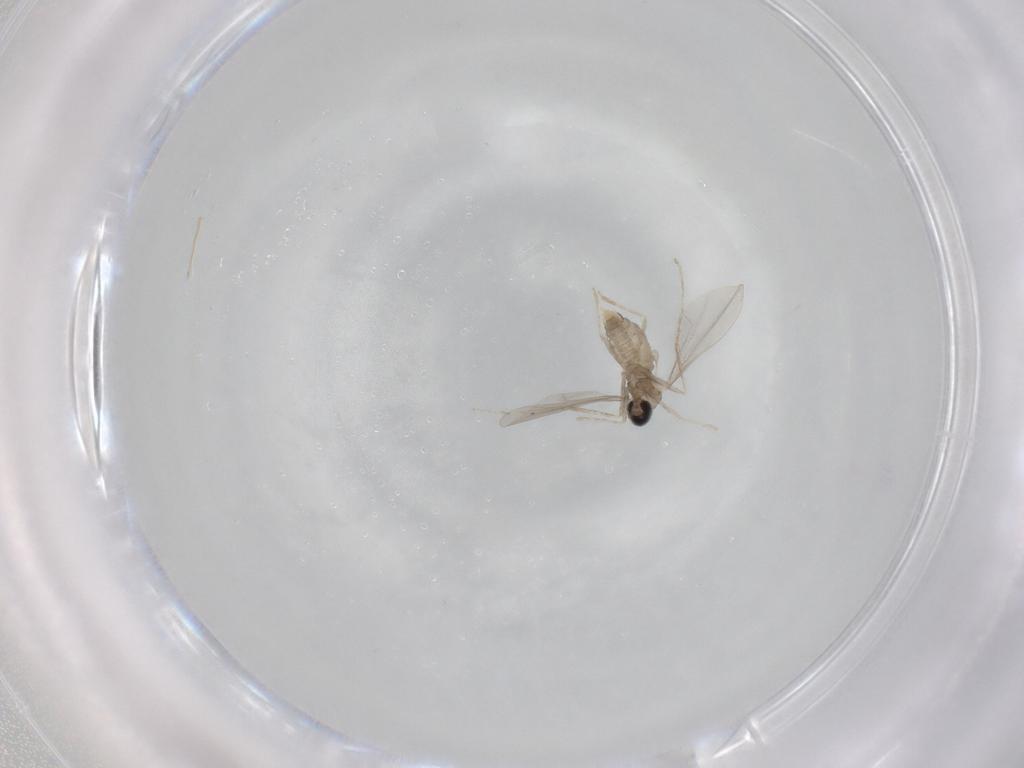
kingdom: Animalia
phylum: Arthropoda
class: Insecta
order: Diptera
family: Cecidomyiidae
